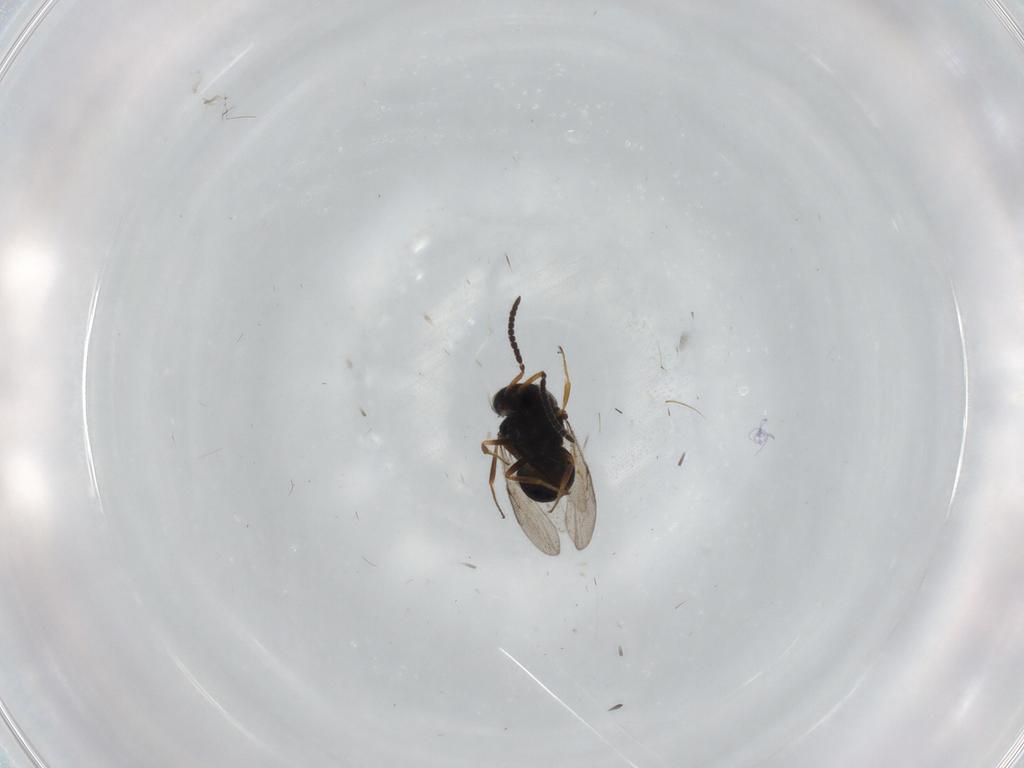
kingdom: Animalia
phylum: Arthropoda
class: Insecta
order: Hymenoptera
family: Scelionidae
